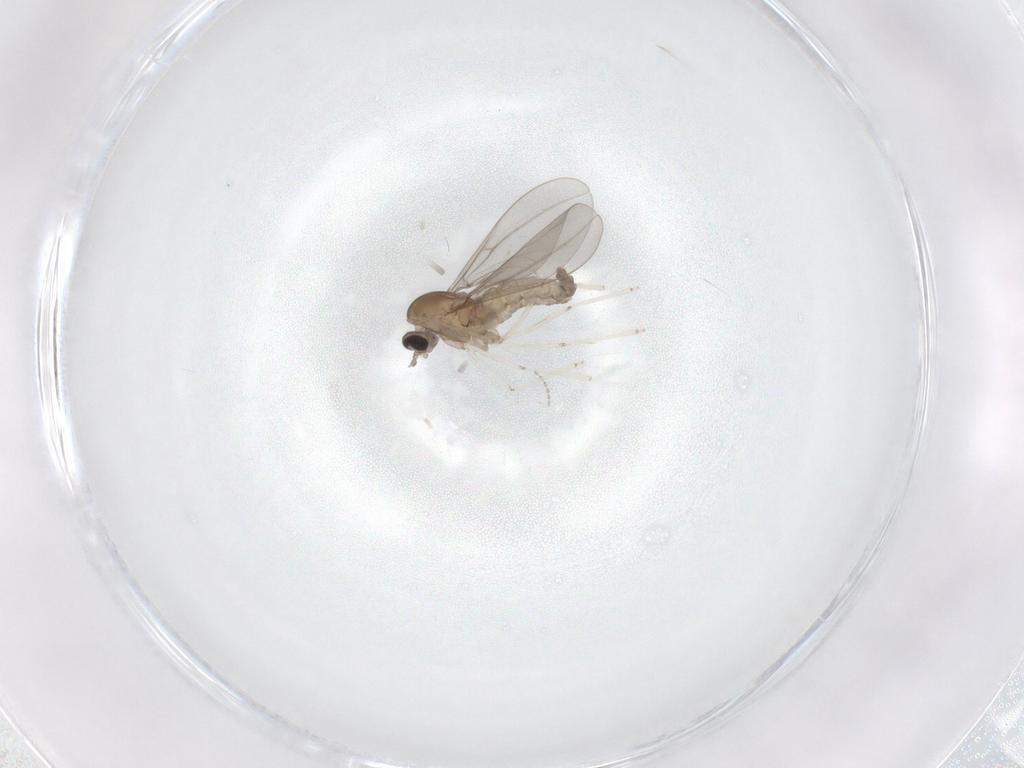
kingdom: Animalia
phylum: Arthropoda
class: Insecta
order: Diptera
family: Cecidomyiidae
